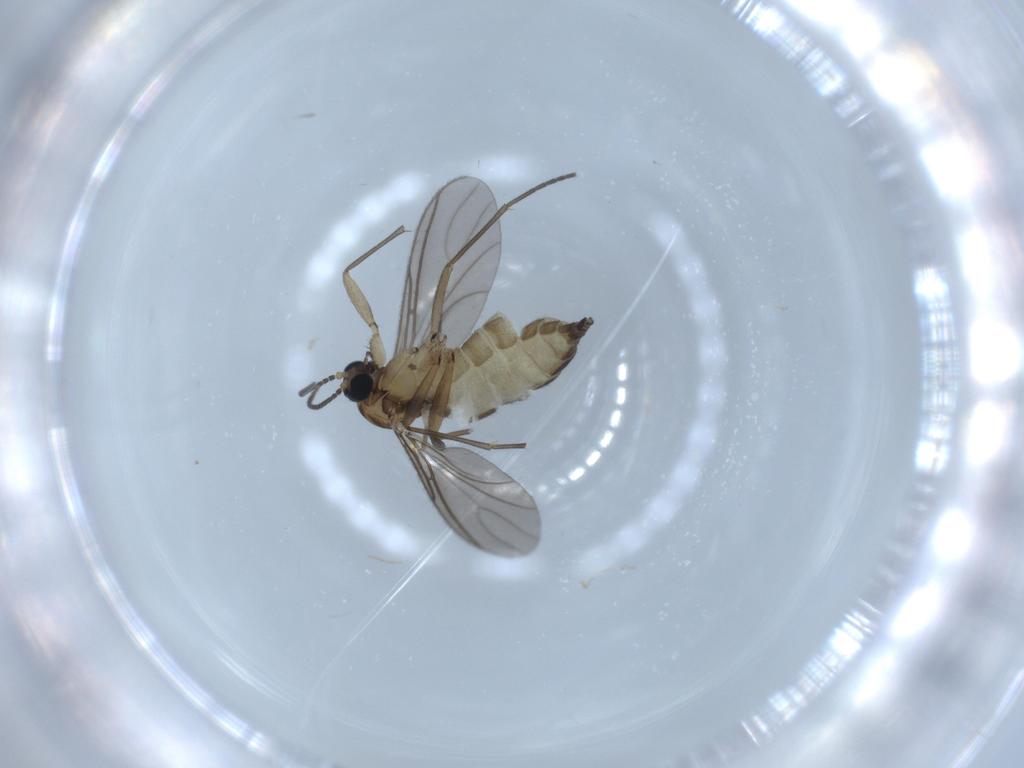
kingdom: Animalia
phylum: Arthropoda
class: Insecta
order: Diptera
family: Sciaridae
